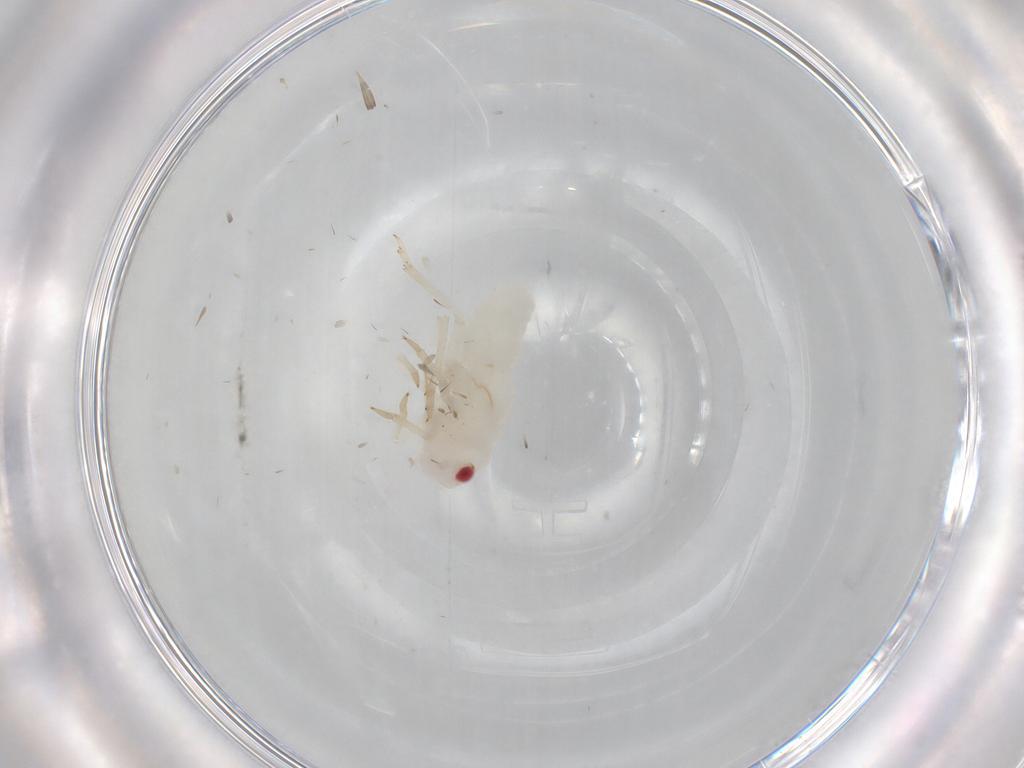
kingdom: Animalia
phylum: Arthropoda
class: Insecta
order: Hemiptera
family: Tropiduchidae
